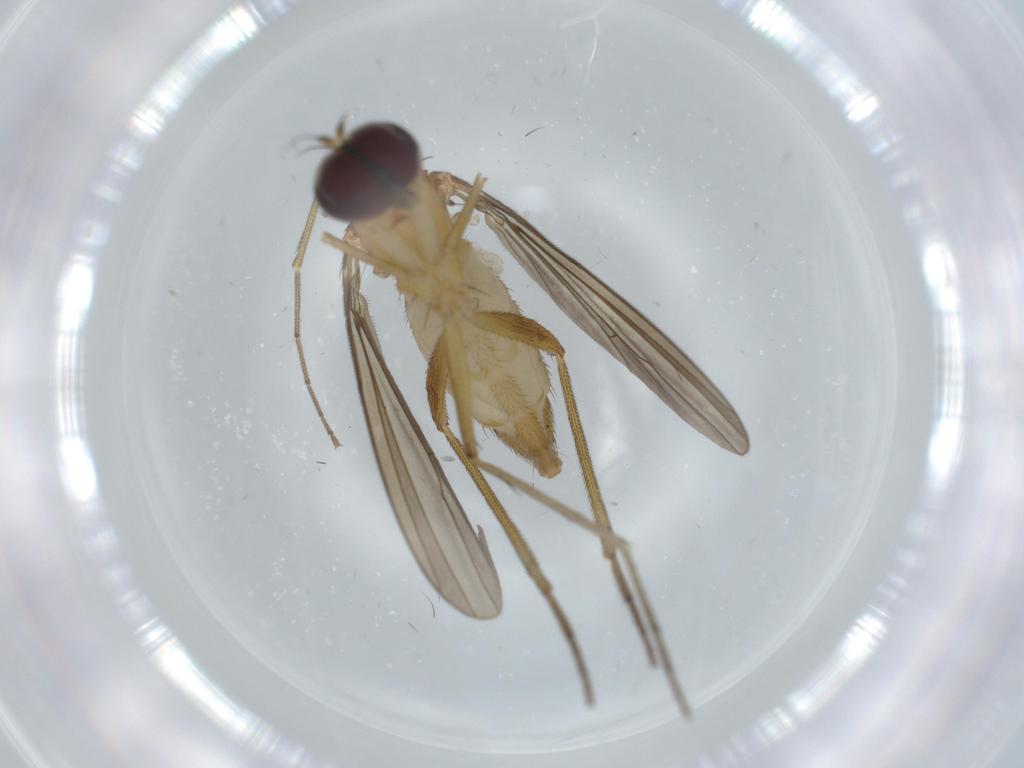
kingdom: Animalia
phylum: Arthropoda
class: Insecta
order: Diptera
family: Dolichopodidae
